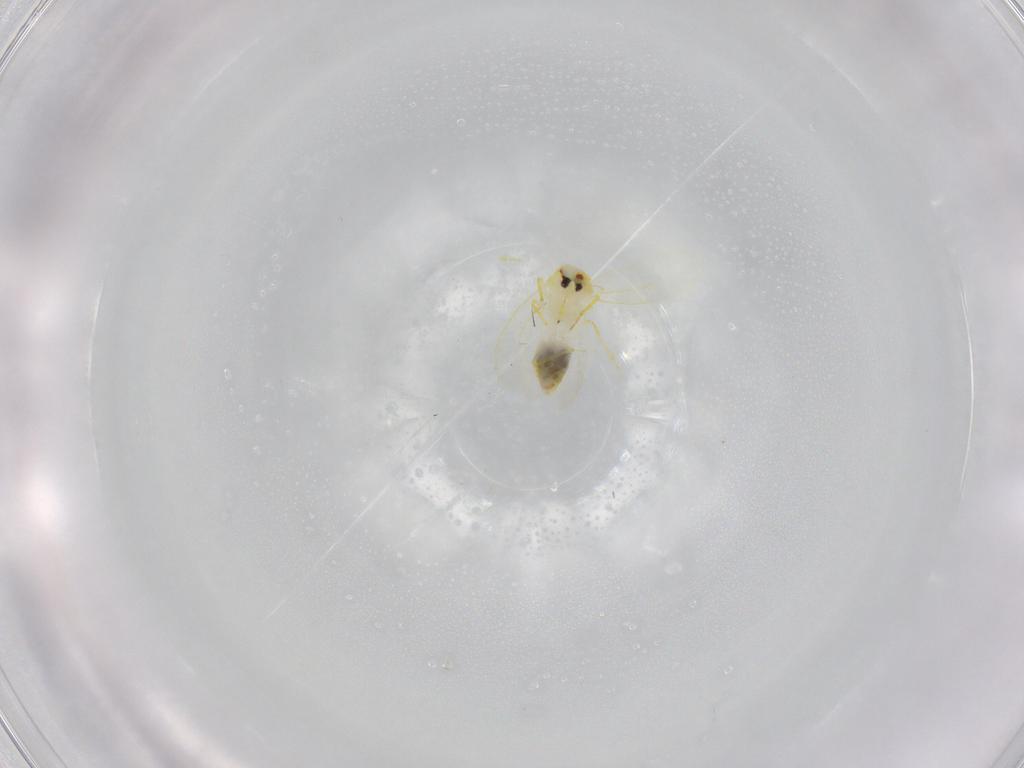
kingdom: Animalia
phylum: Arthropoda
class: Insecta
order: Hemiptera
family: Aleyrodidae
